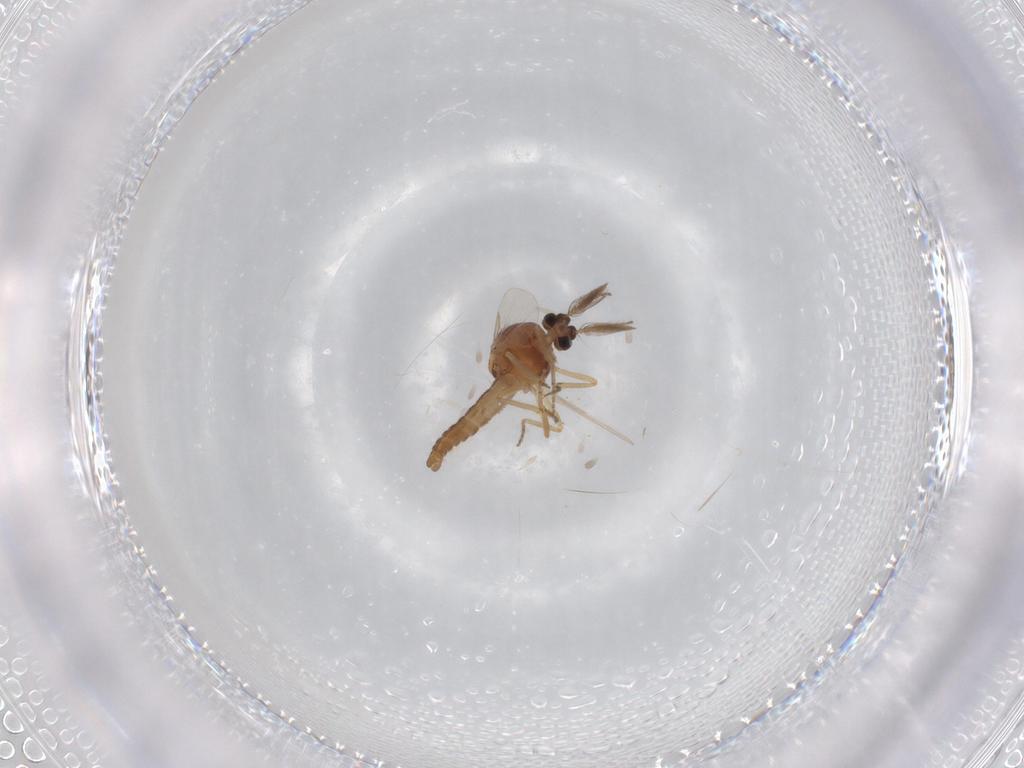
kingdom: Animalia
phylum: Arthropoda
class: Insecta
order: Diptera
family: Ceratopogonidae
